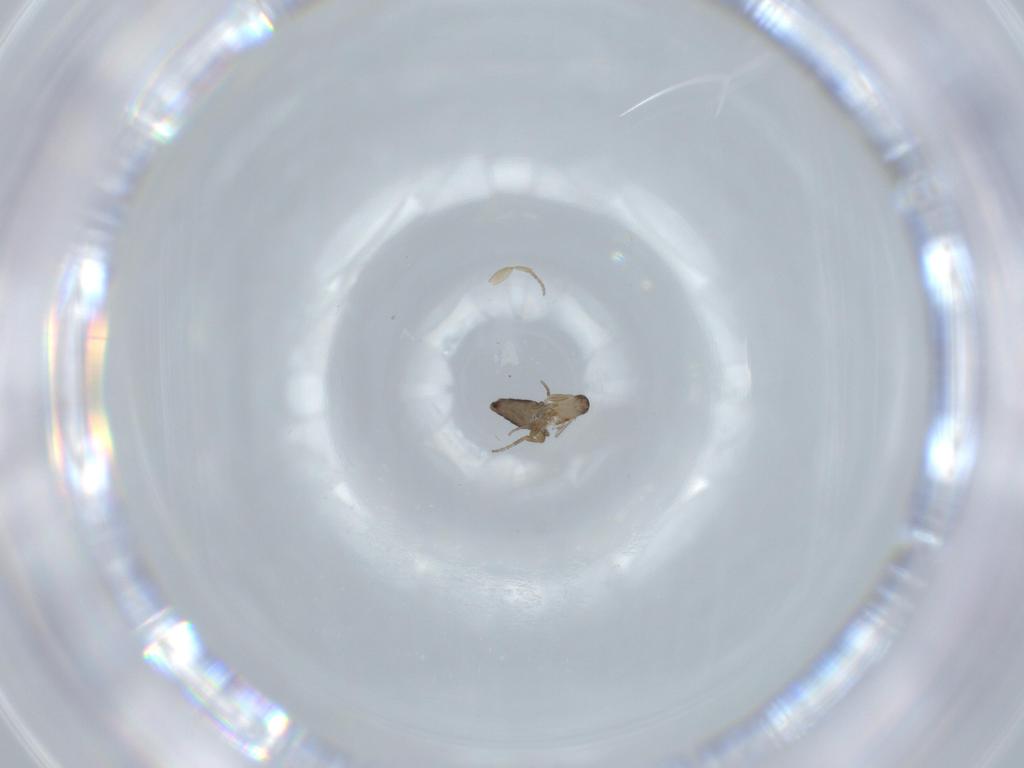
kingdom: Animalia
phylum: Arthropoda
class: Insecta
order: Diptera
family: Phoridae
